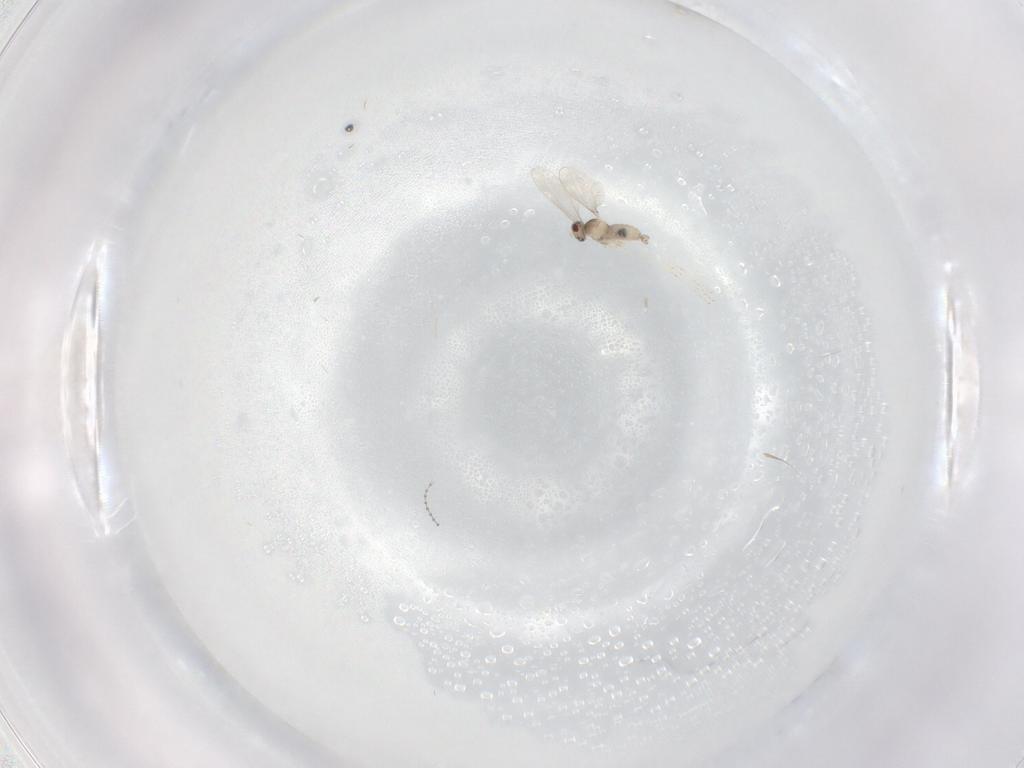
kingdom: Animalia
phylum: Arthropoda
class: Insecta
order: Diptera
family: Cecidomyiidae
